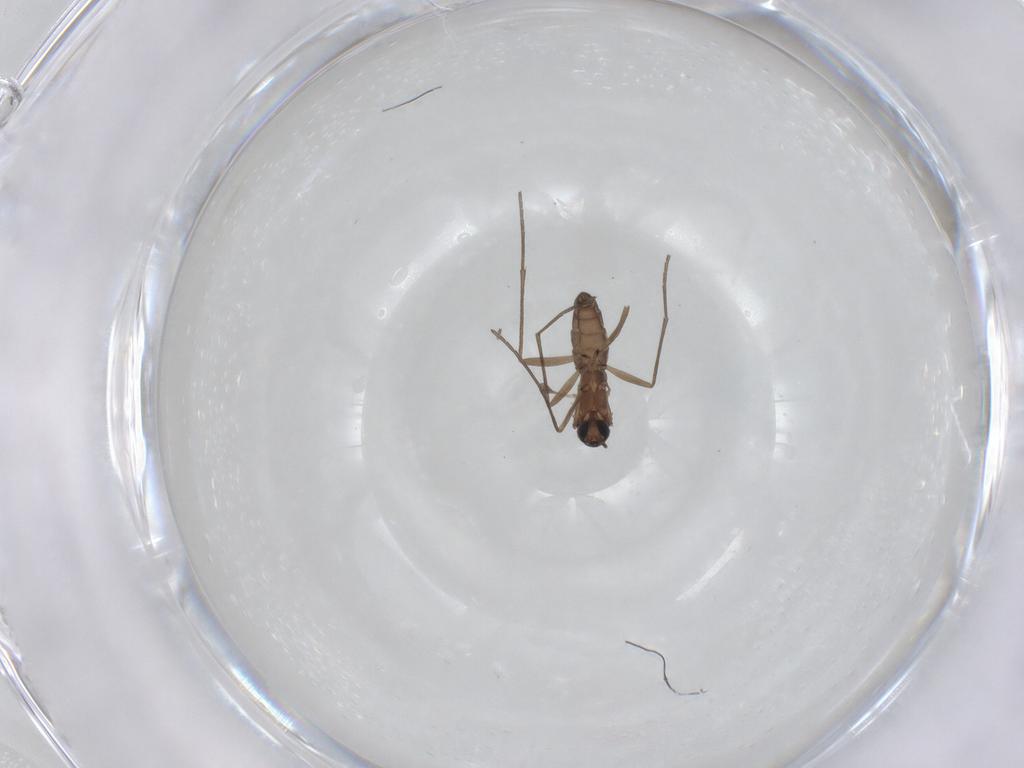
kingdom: Animalia
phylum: Arthropoda
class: Insecta
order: Diptera
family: Sciaridae
